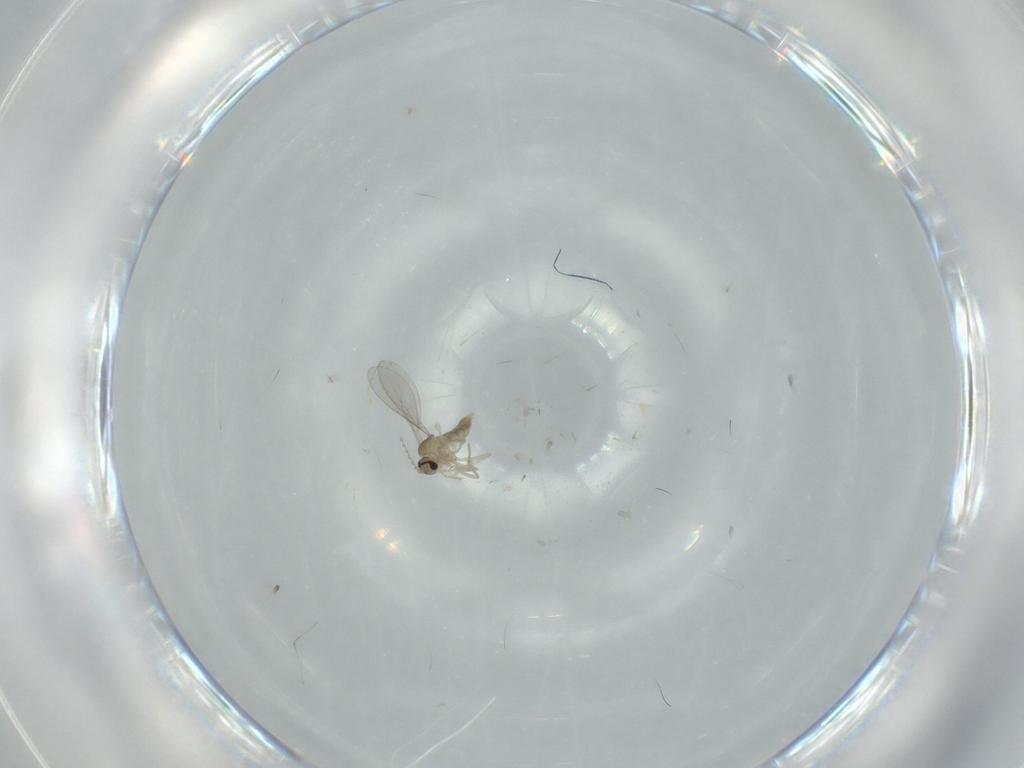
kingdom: Animalia
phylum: Arthropoda
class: Insecta
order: Diptera
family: Cecidomyiidae
